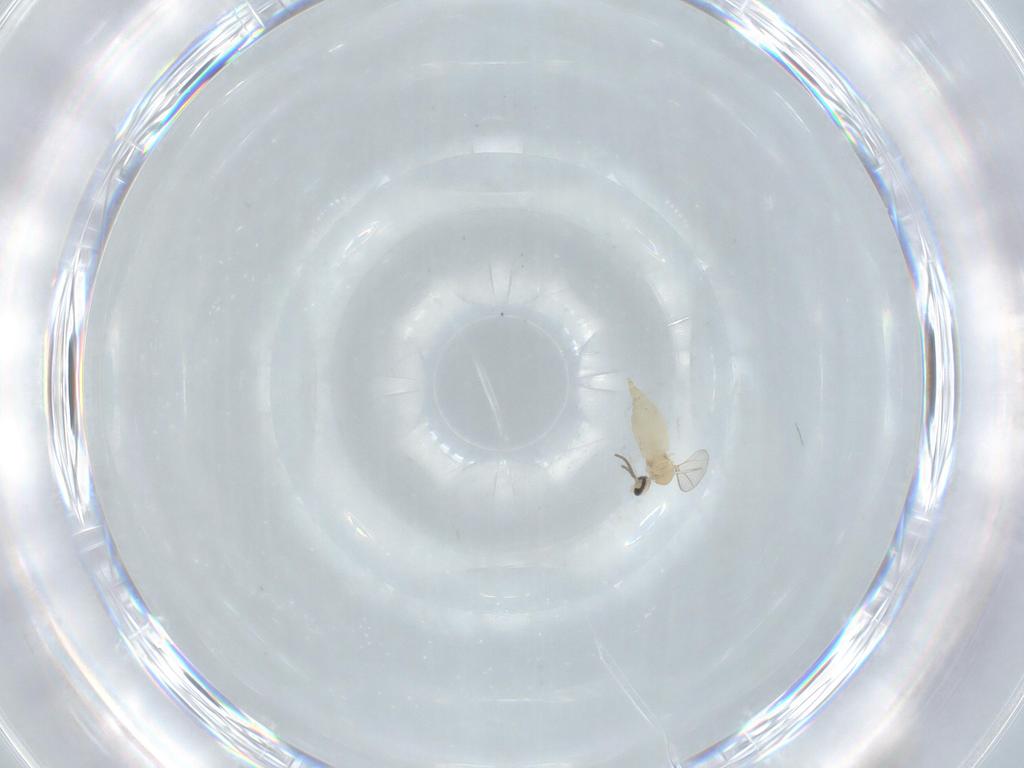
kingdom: Animalia
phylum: Arthropoda
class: Insecta
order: Diptera
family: Cecidomyiidae
